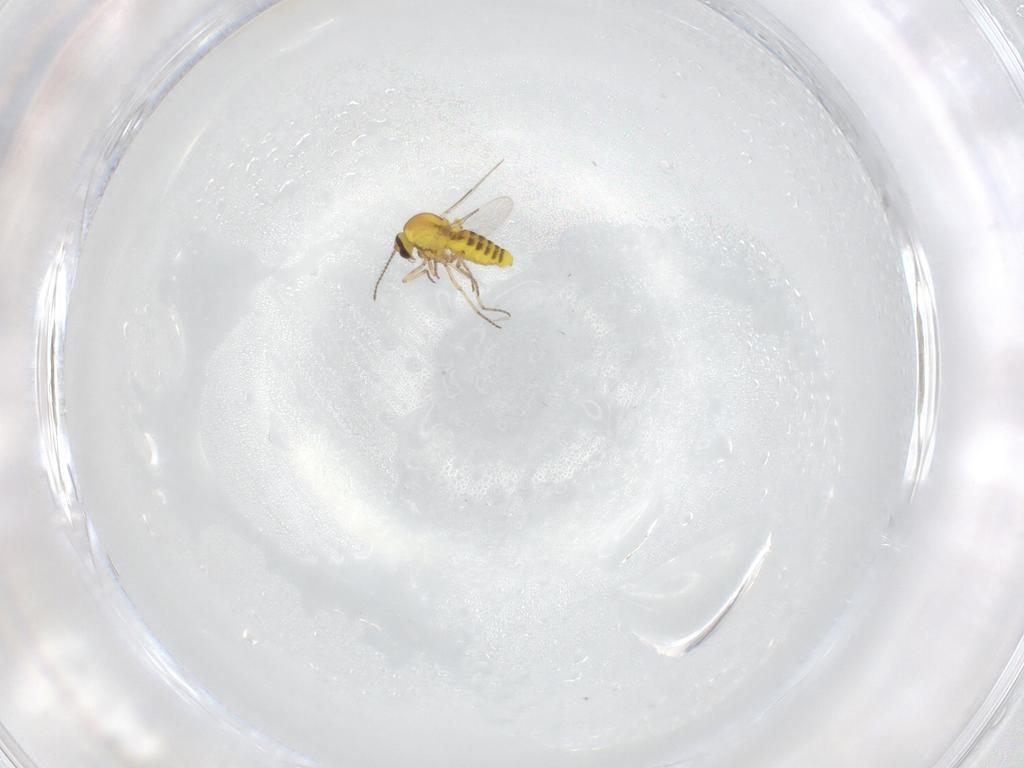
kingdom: Animalia
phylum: Arthropoda
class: Insecta
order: Diptera
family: Ceratopogonidae
